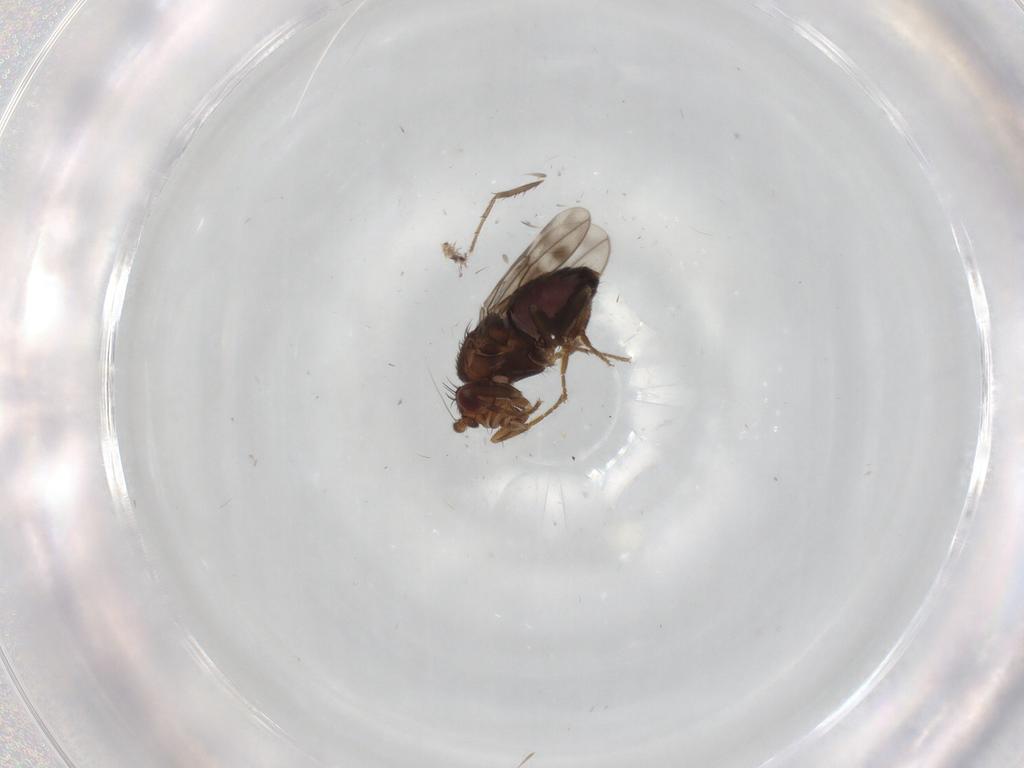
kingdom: Animalia
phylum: Arthropoda
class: Insecta
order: Diptera
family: Sphaeroceridae
